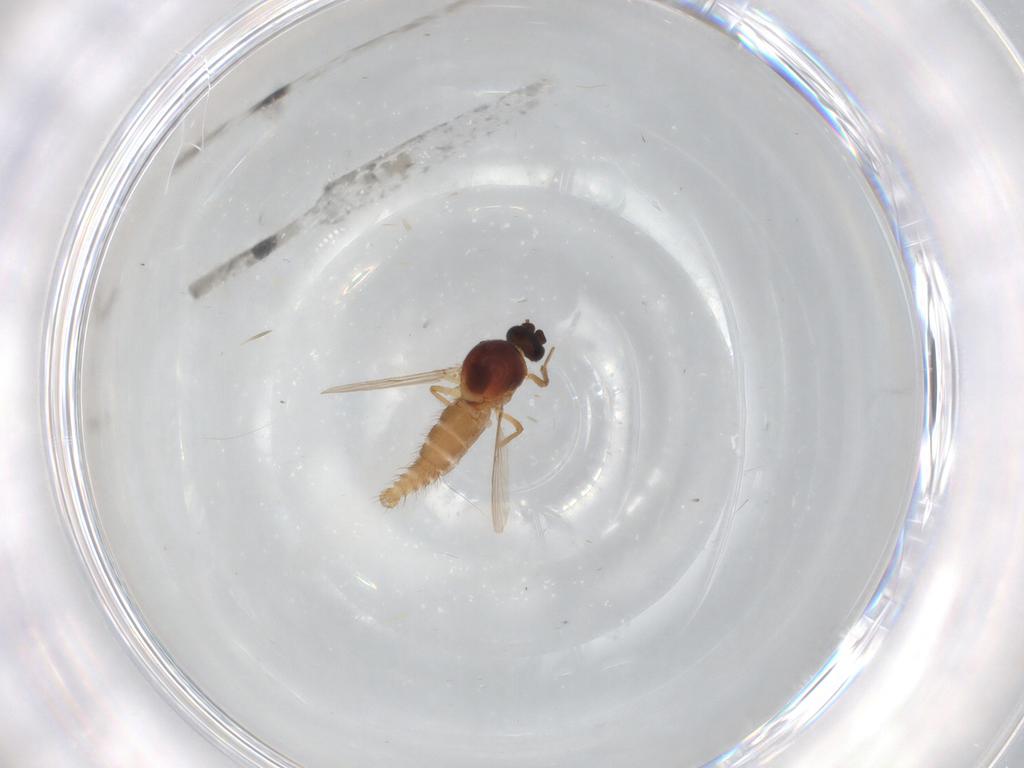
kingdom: Animalia
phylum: Arthropoda
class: Insecta
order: Diptera
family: Ceratopogonidae
